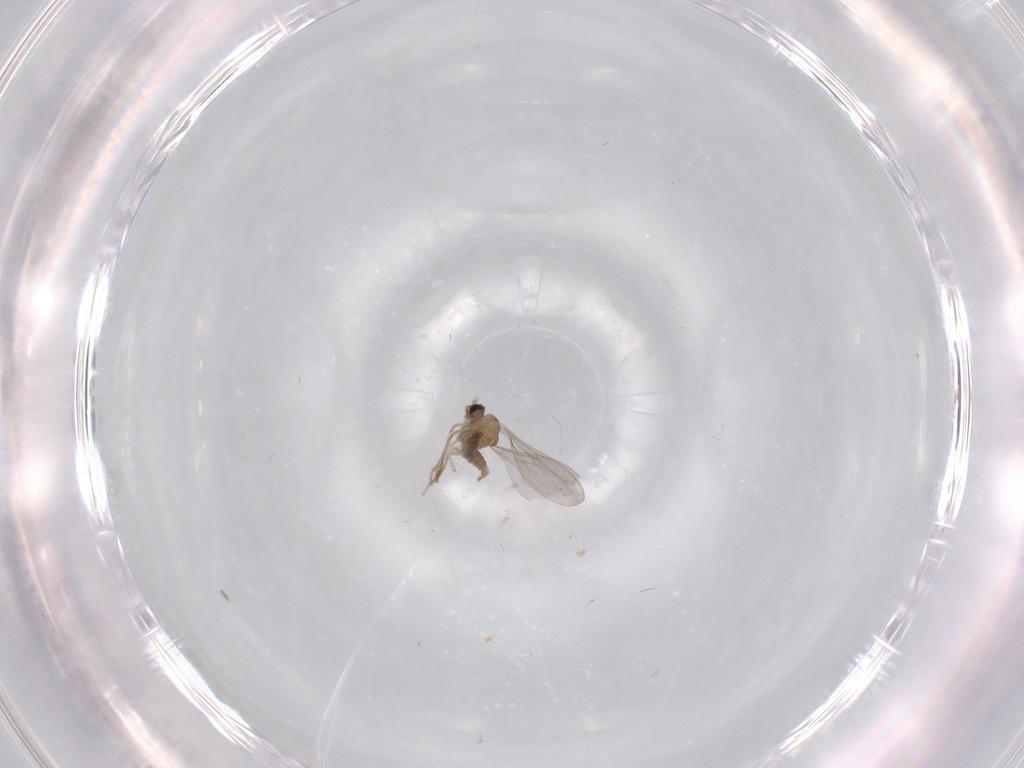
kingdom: Animalia
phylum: Arthropoda
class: Insecta
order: Diptera
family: Cecidomyiidae
